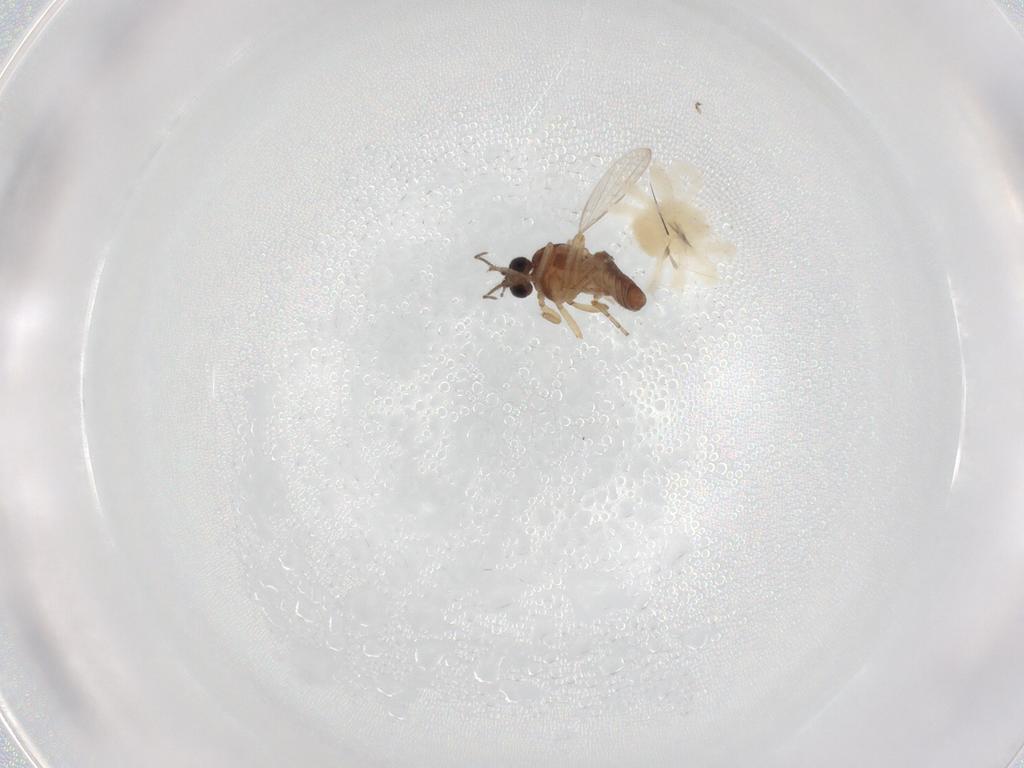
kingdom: Animalia
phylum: Arthropoda
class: Insecta
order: Diptera
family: Ceratopogonidae
